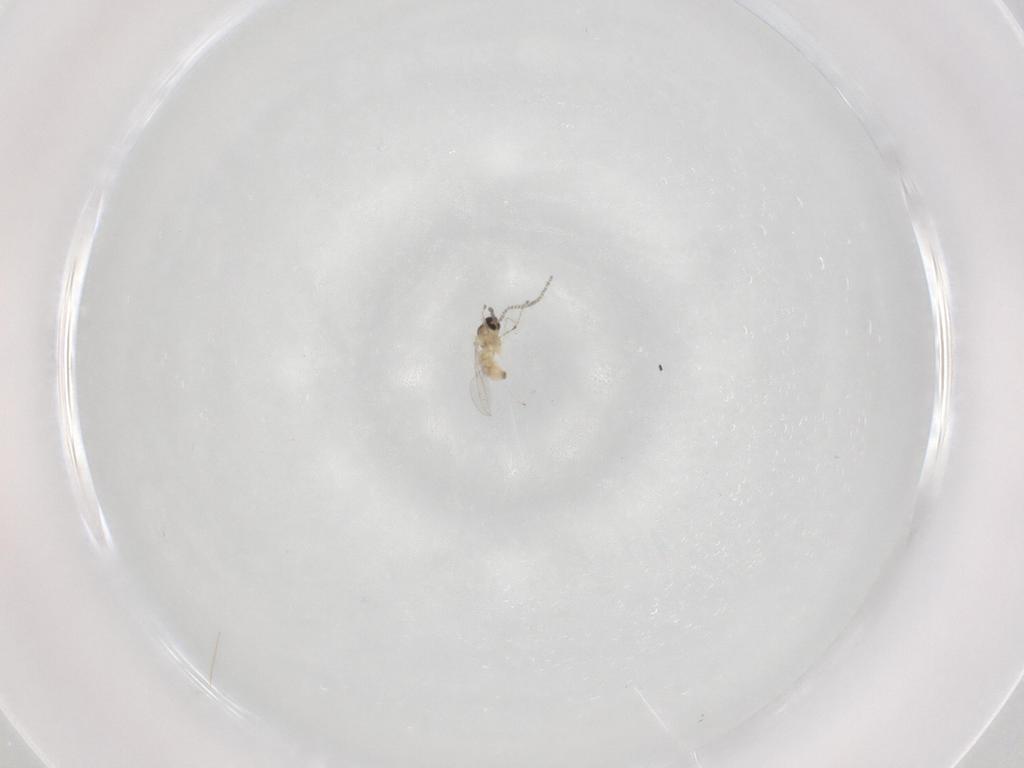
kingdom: Animalia
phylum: Arthropoda
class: Insecta
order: Diptera
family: Cecidomyiidae
